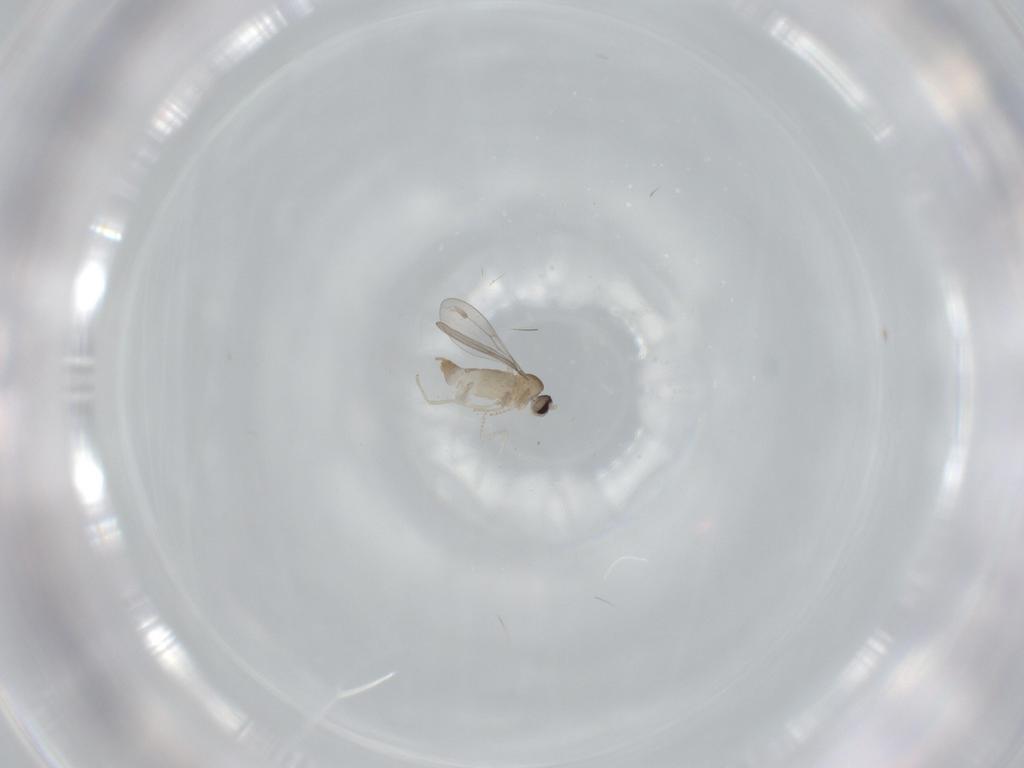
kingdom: Animalia
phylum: Arthropoda
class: Insecta
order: Diptera
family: Cecidomyiidae
